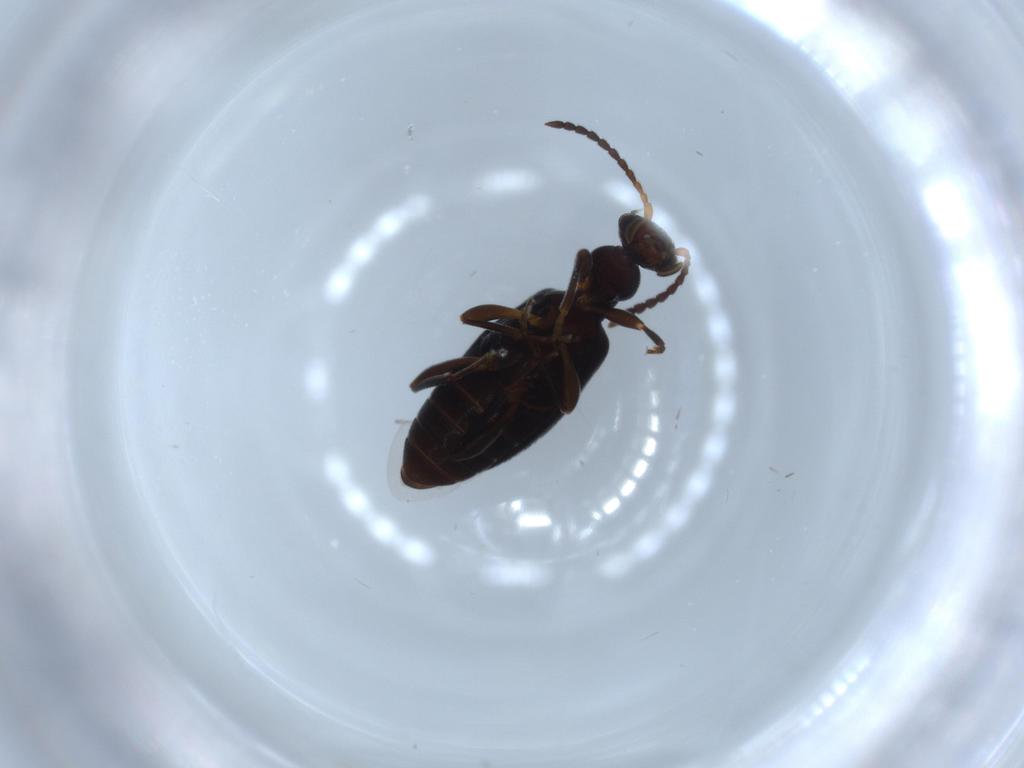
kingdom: Animalia
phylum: Arthropoda
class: Insecta
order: Coleoptera
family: Anthicidae
